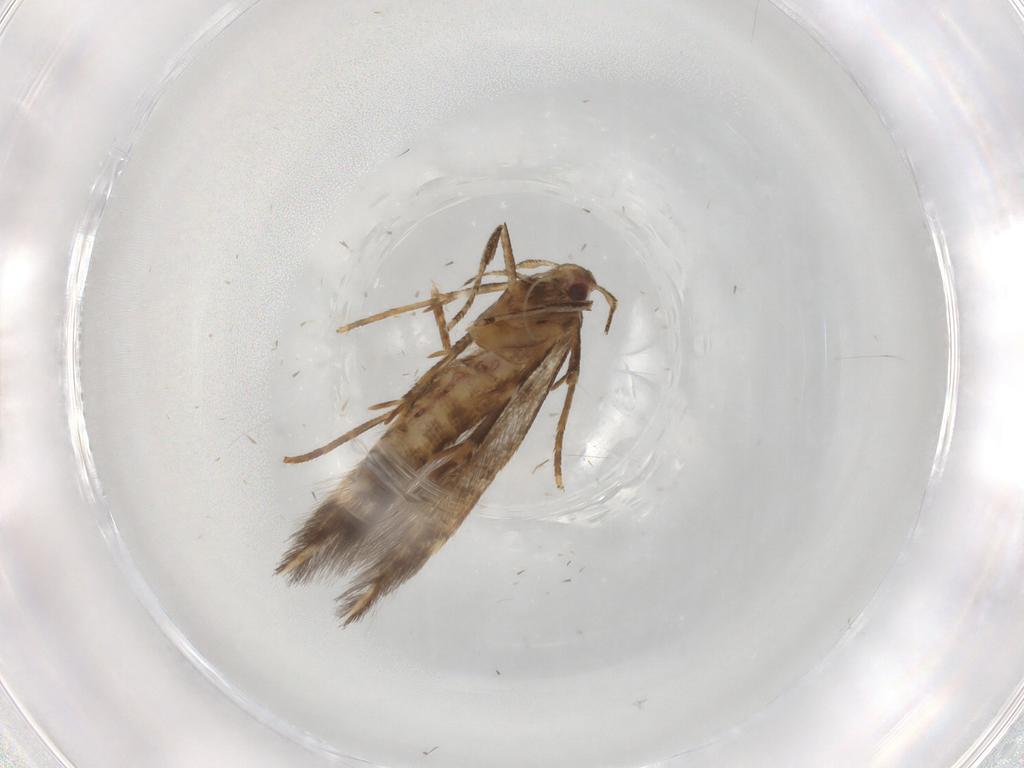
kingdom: Animalia
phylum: Arthropoda
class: Insecta
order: Lepidoptera
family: Cosmopterigidae
